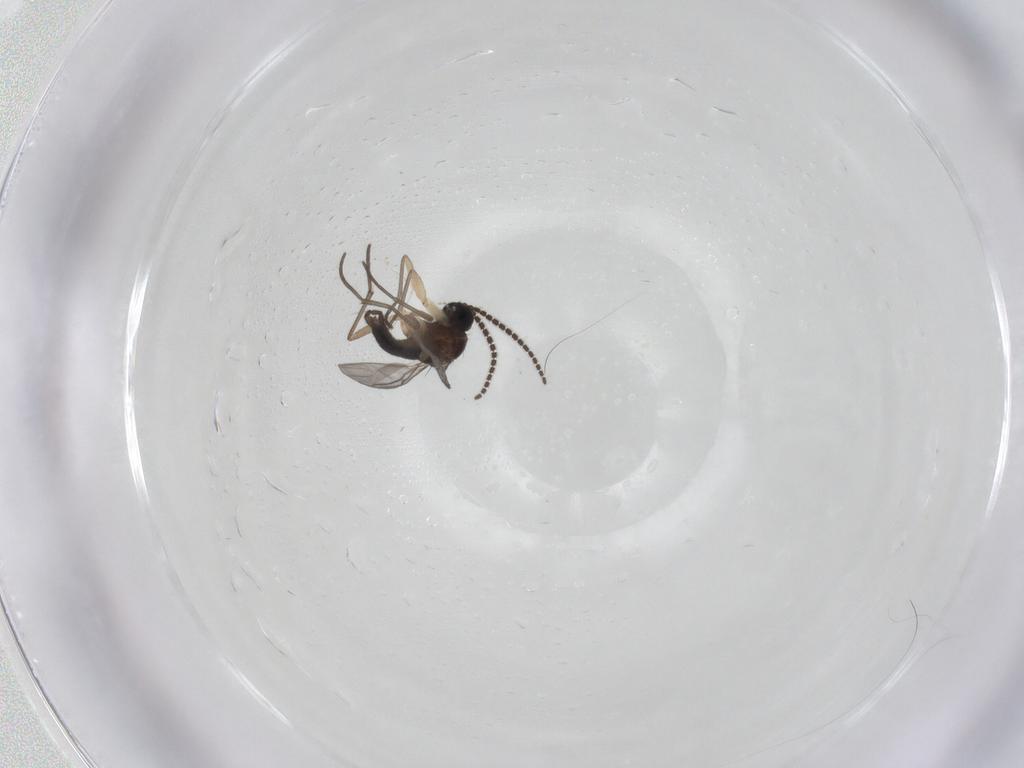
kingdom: Animalia
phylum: Arthropoda
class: Insecta
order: Diptera
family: Sciaridae
